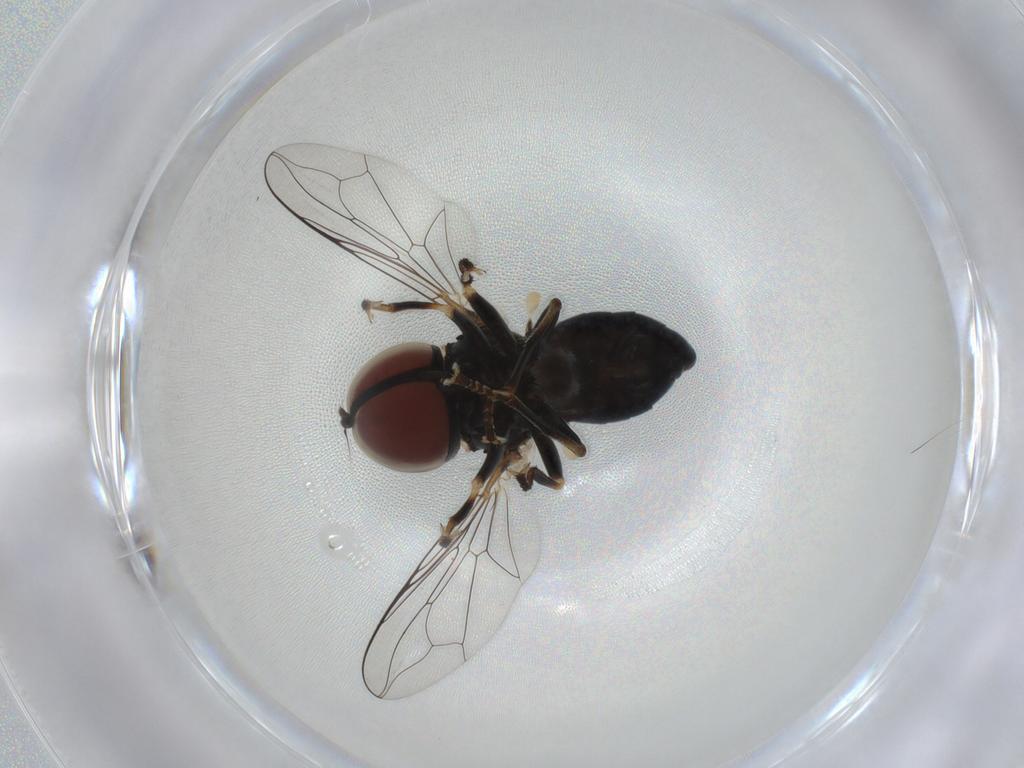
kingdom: Animalia
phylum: Arthropoda
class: Insecta
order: Diptera
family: Pipunculidae
